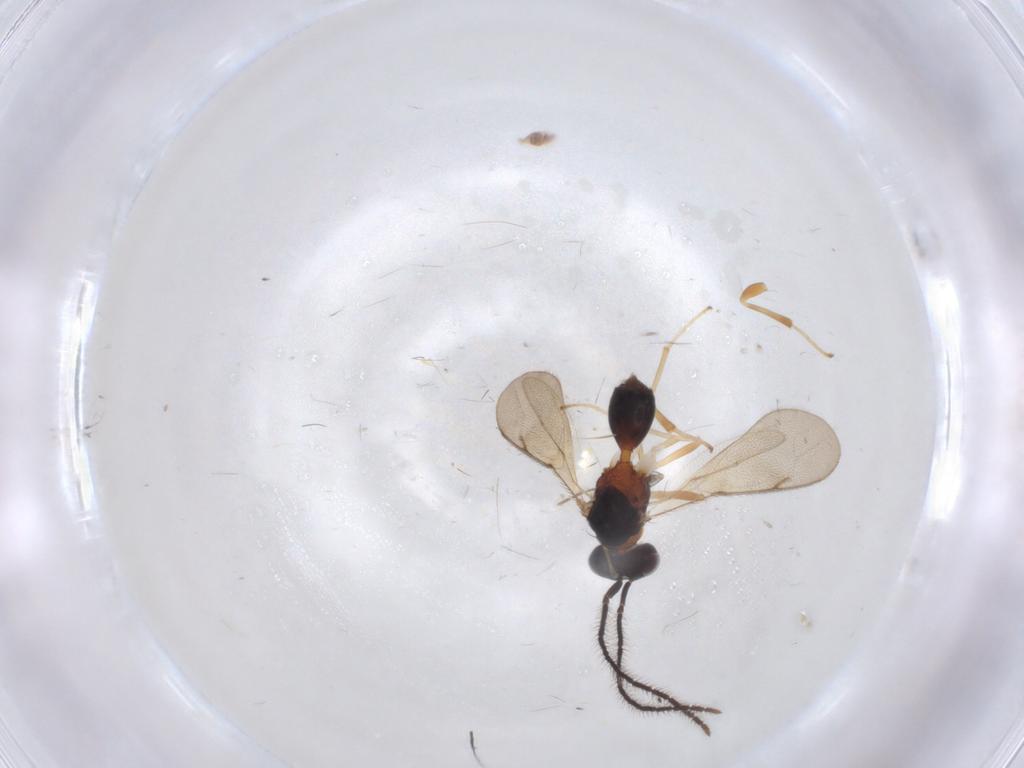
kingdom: Animalia
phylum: Arthropoda
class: Insecta
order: Hymenoptera
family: Diparidae
